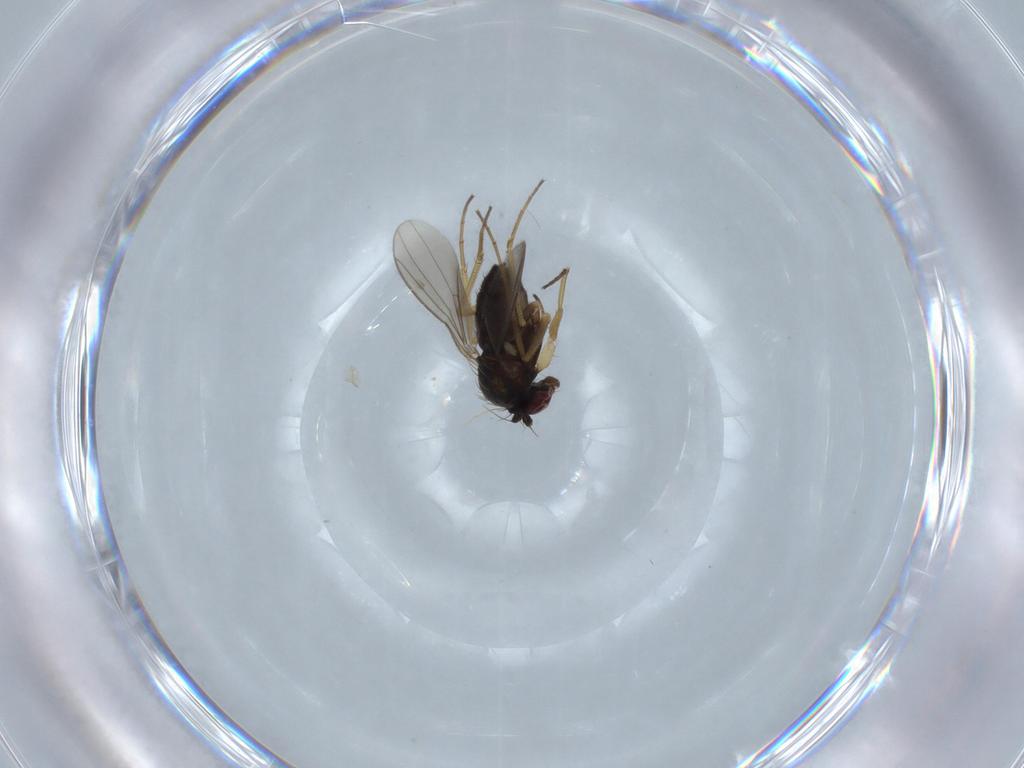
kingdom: Animalia
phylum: Arthropoda
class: Insecta
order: Diptera
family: Dolichopodidae
